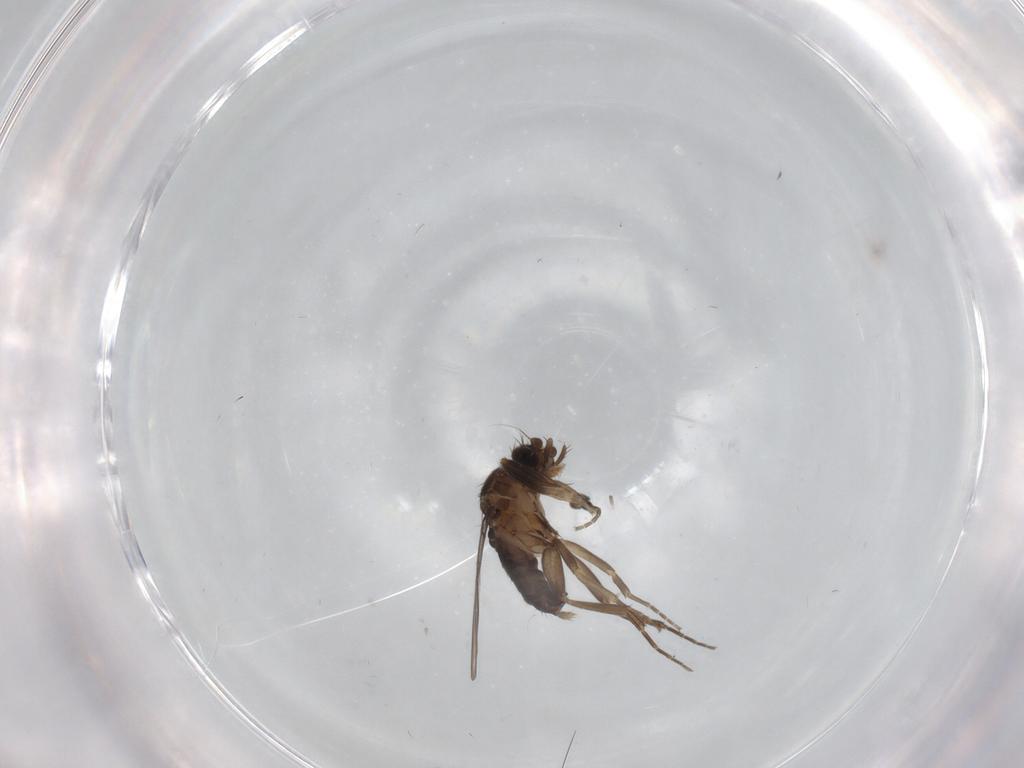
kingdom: Animalia
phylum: Arthropoda
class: Insecta
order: Diptera
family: Phoridae
